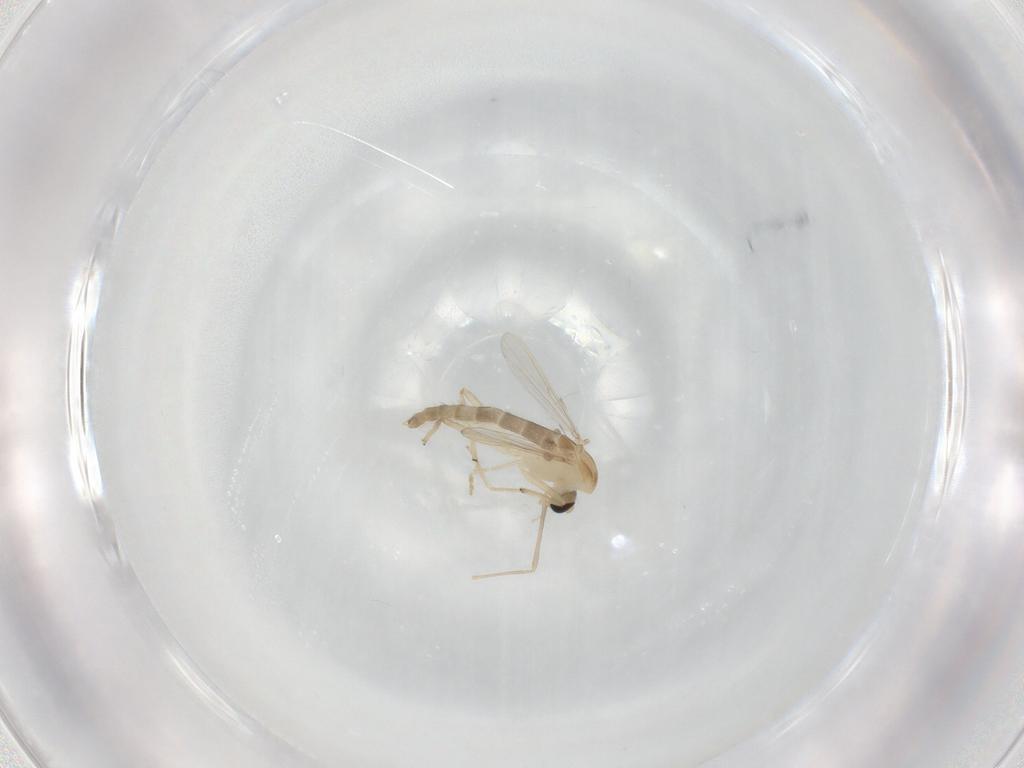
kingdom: Animalia
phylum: Arthropoda
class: Insecta
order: Diptera
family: Chironomidae
